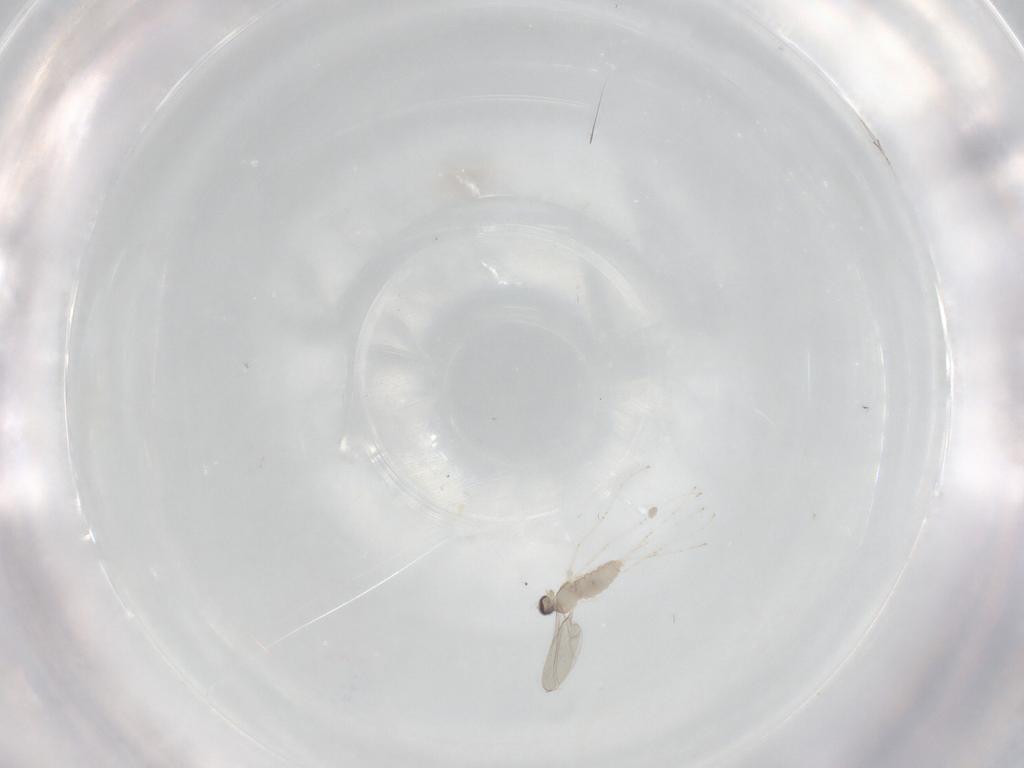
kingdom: Animalia
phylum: Arthropoda
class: Insecta
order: Diptera
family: Cecidomyiidae
